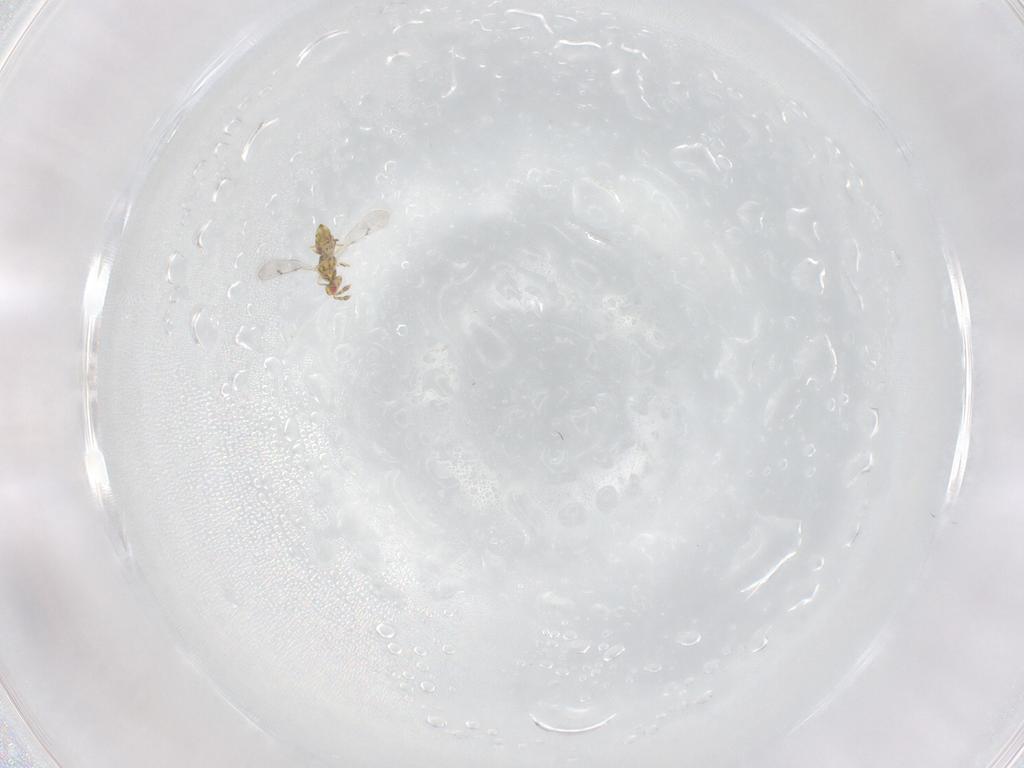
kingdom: Animalia
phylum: Arthropoda
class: Insecta
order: Hymenoptera
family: Eulophidae
